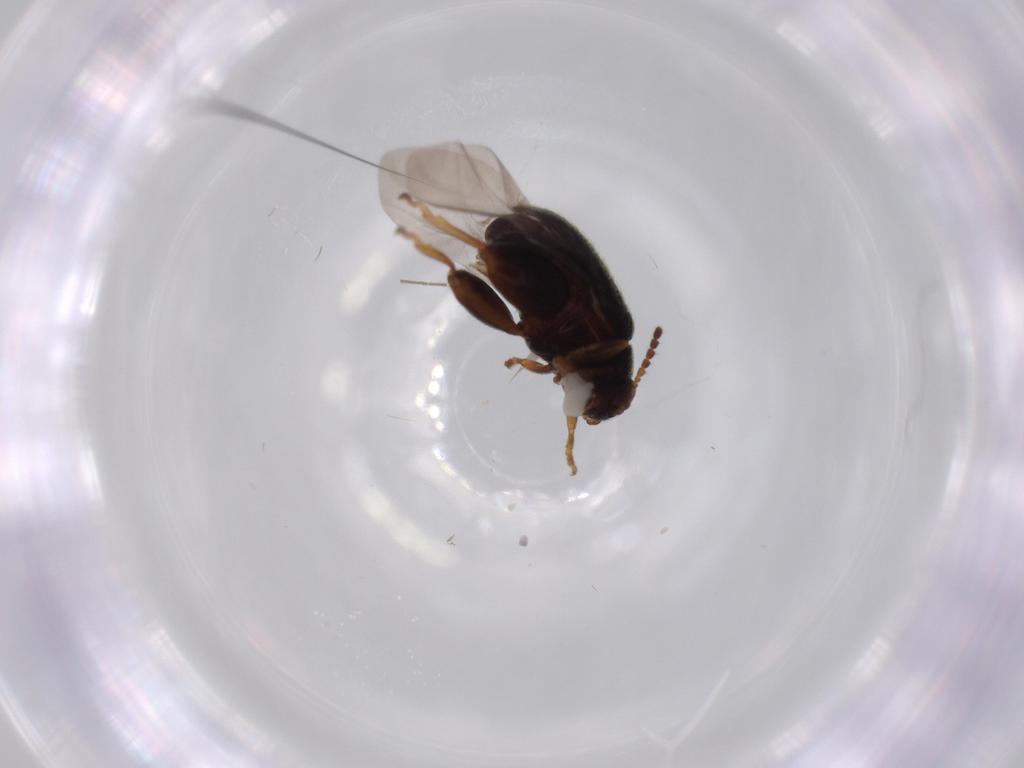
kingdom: Animalia
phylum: Arthropoda
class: Insecta
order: Coleoptera
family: Chrysomelidae
